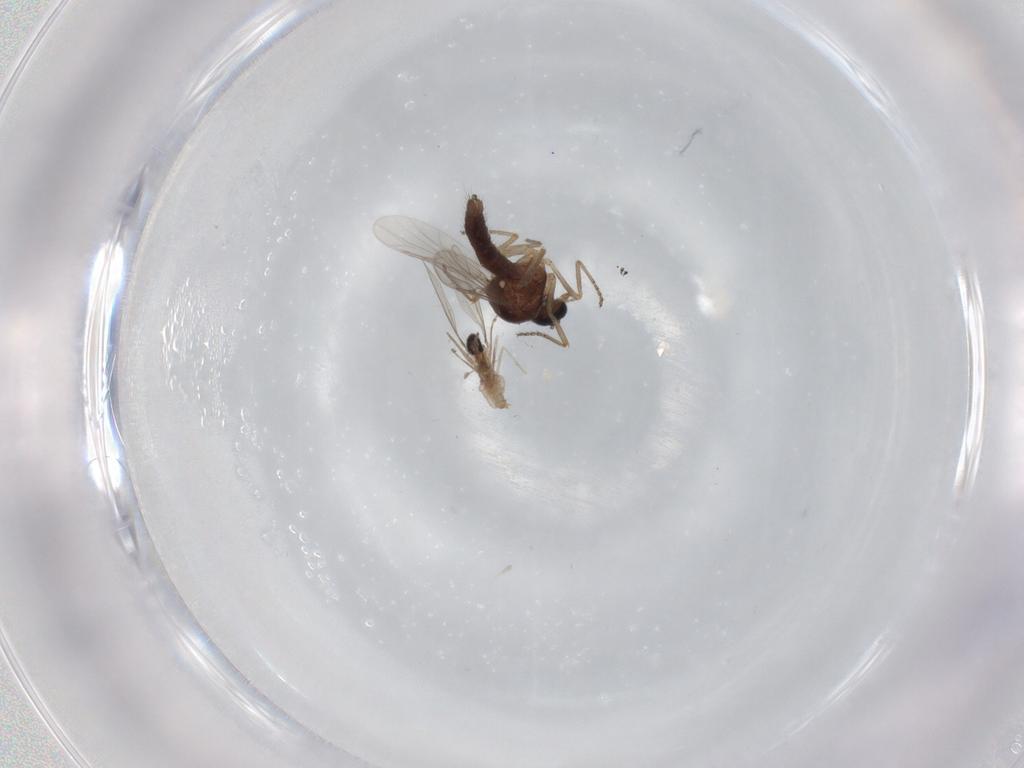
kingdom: Animalia
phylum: Arthropoda
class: Insecta
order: Diptera
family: Ceratopogonidae
